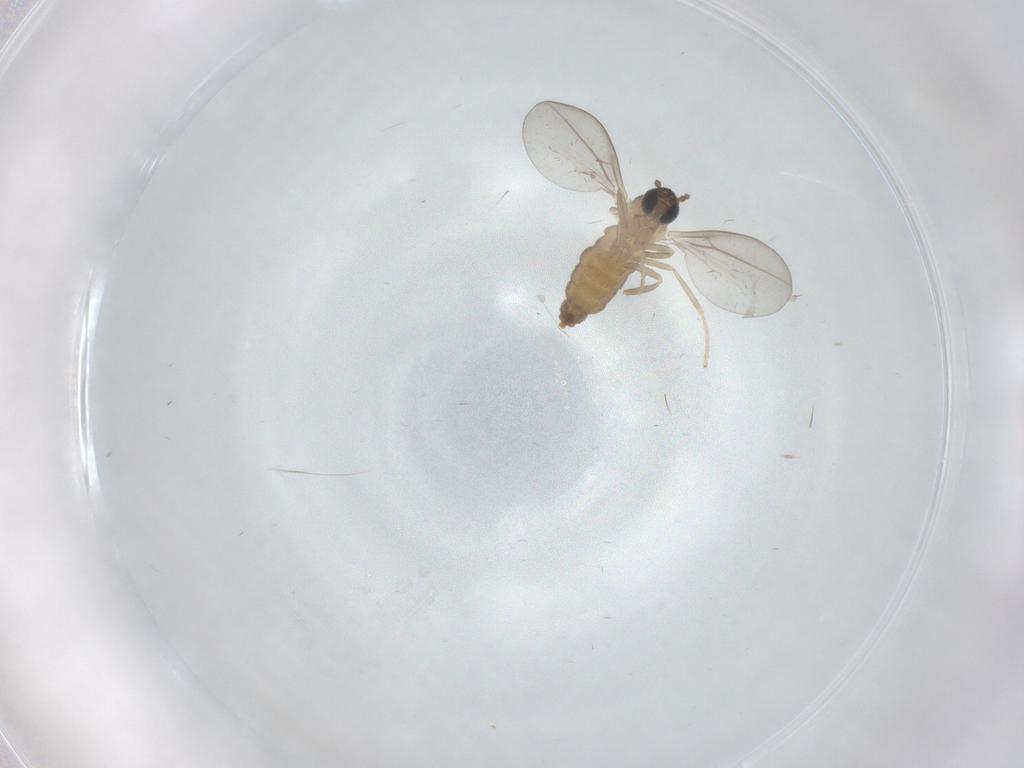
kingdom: Animalia
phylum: Arthropoda
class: Insecta
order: Diptera
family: Cecidomyiidae
